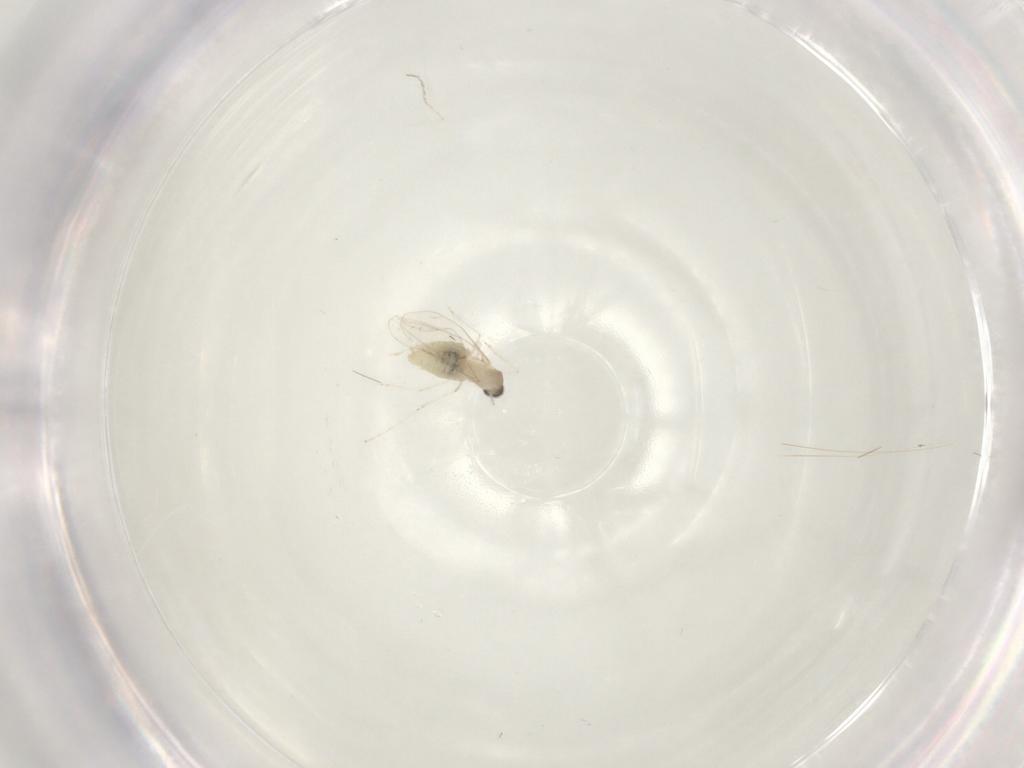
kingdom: Animalia
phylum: Arthropoda
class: Insecta
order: Diptera
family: Cecidomyiidae
